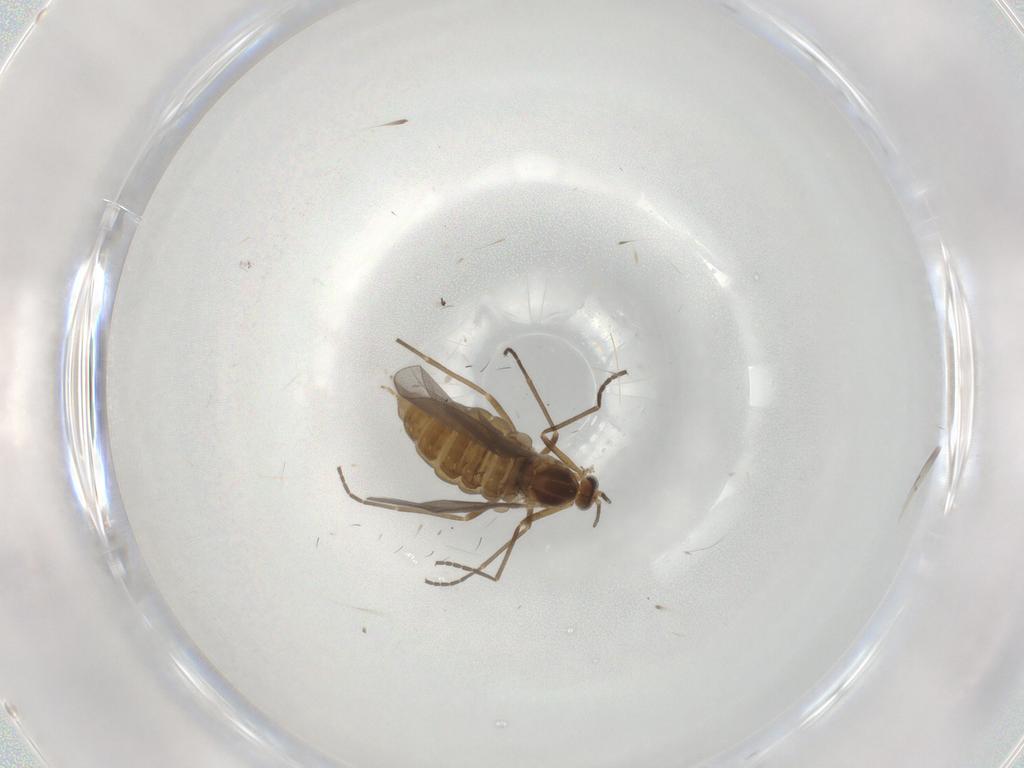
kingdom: Animalia
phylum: Arthropoda
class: Insecta
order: Diptera
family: Cecidomyiidae
